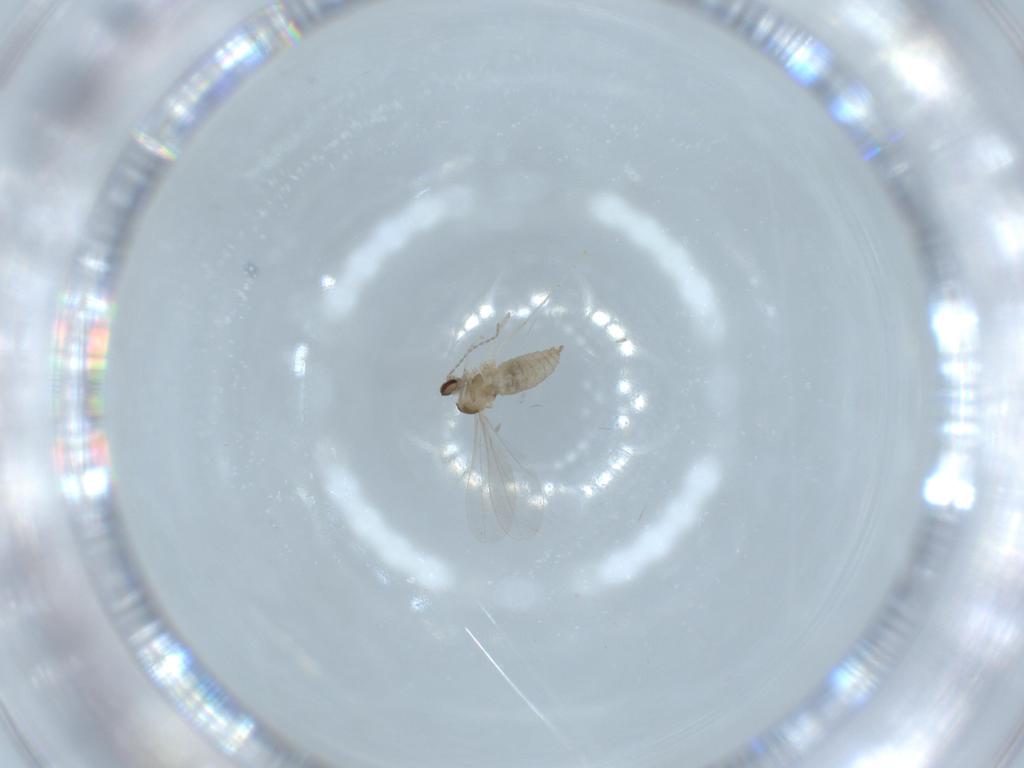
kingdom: Animalia
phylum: Arthropoda
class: Insecta
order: Diptera
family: Cecidomyiidae
